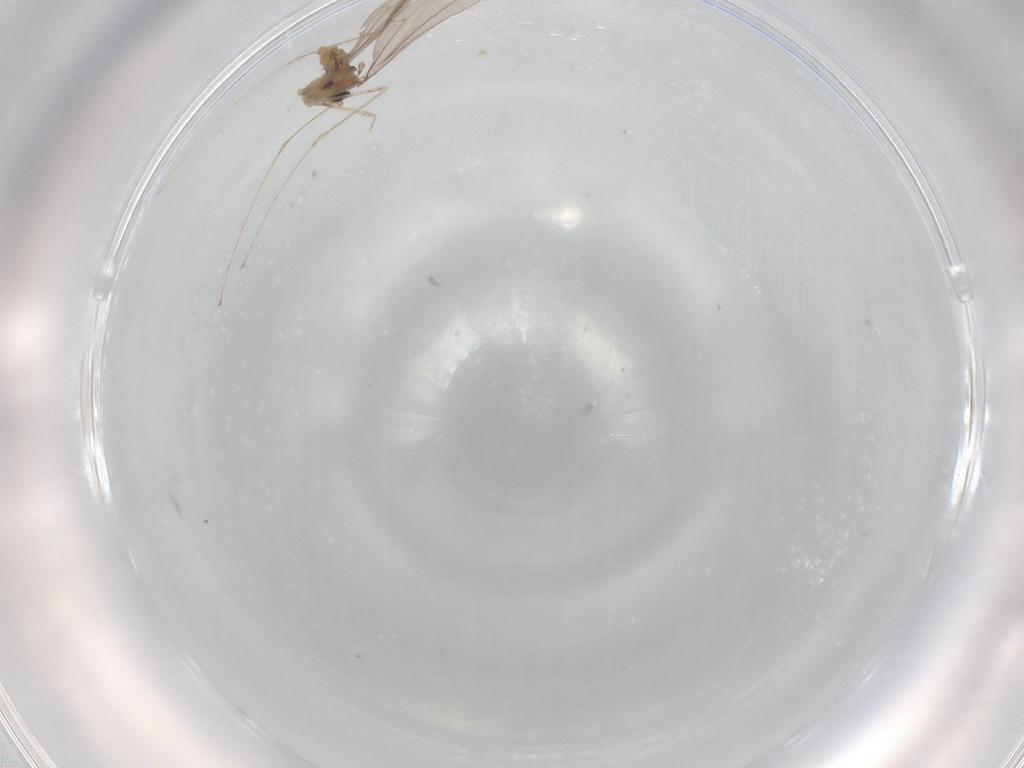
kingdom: Animalia
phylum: Arthropoda
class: Insecta
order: Diptera
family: Cecidomyiidae
